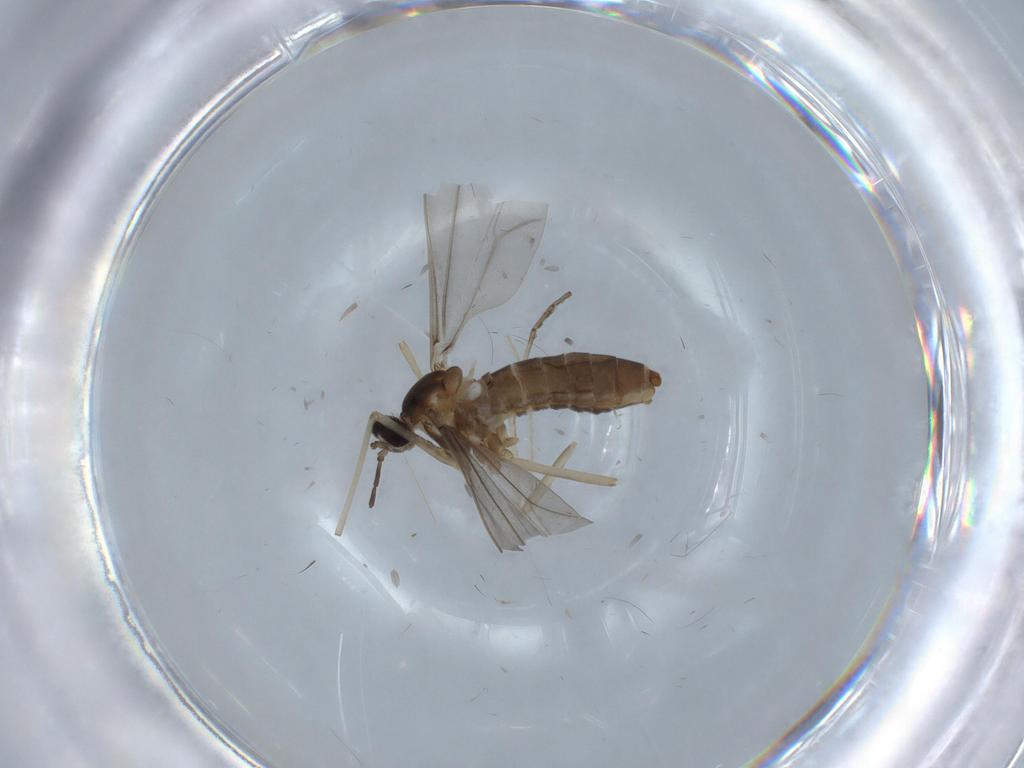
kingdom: Animalia
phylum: Arthropoda
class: Insecta
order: Diptera
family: Cecidomyiidae
